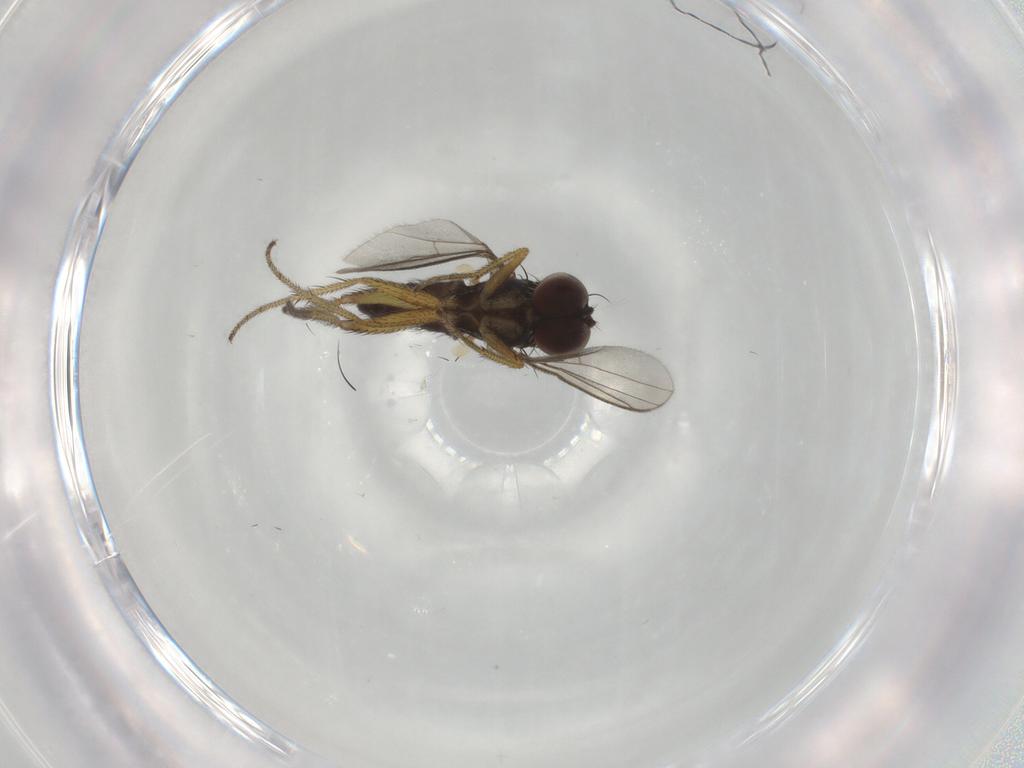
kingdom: Animalia
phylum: Arthropoda
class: Insecta
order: Diptera
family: Dolichopodidae
